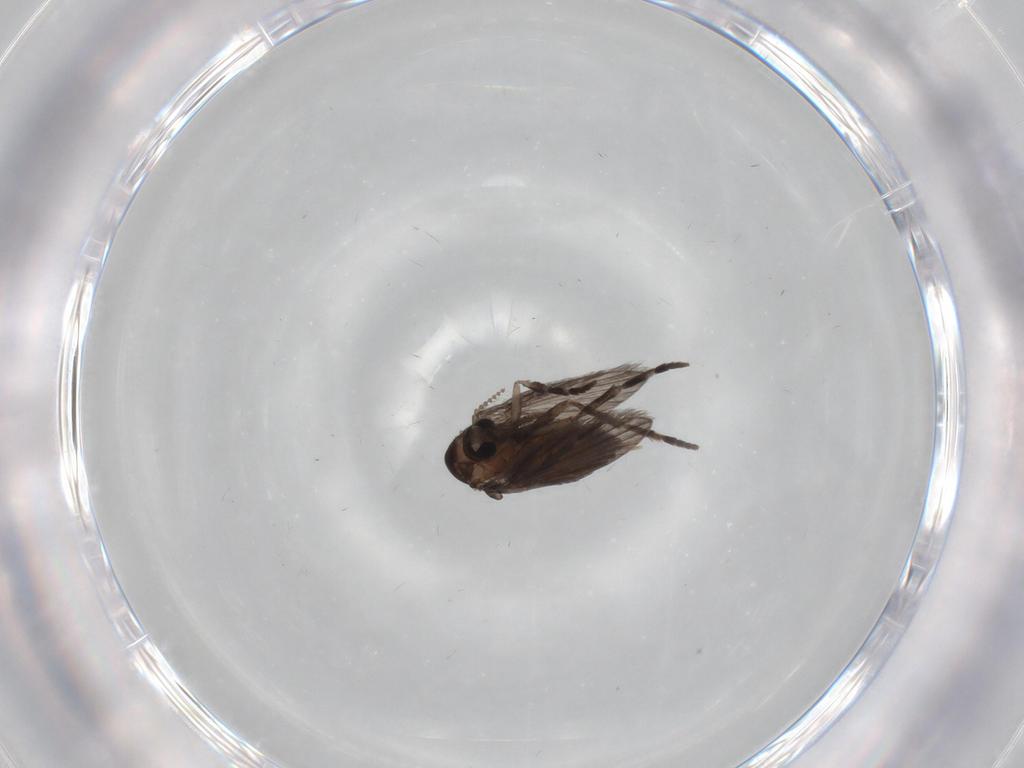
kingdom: Animalia
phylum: Arthropoda
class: Insecta
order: Diptera
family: Psychodidae
